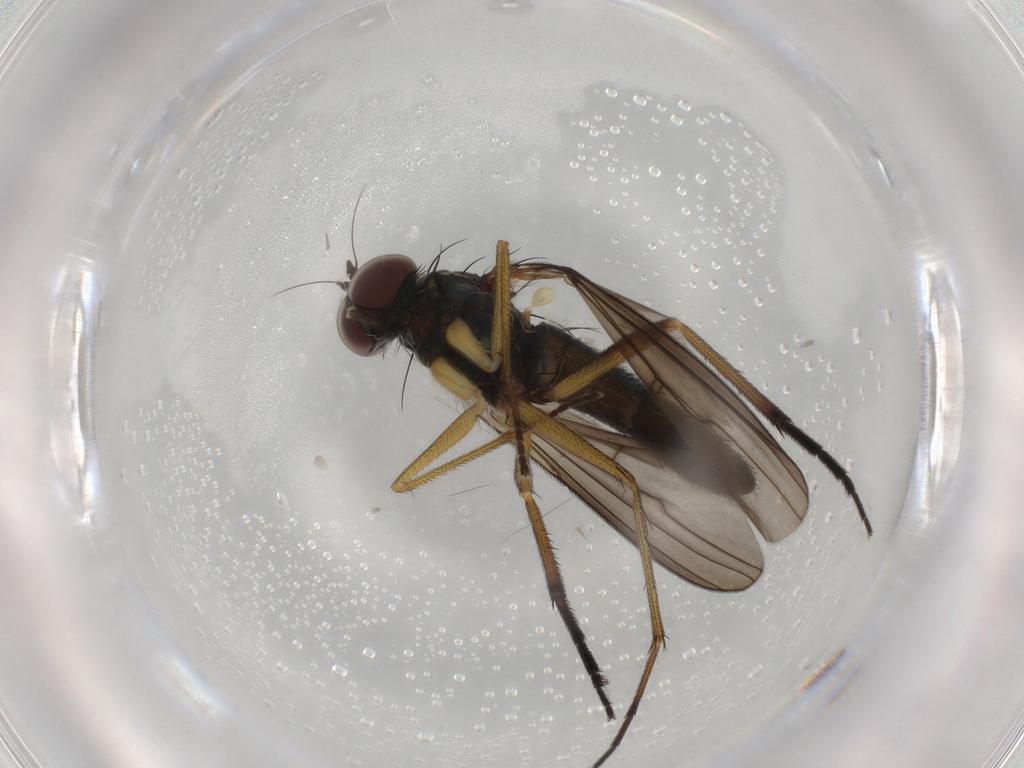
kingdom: Animalia
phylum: Arthropoda
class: Insecta
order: Diptera
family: Dolichopodidae
